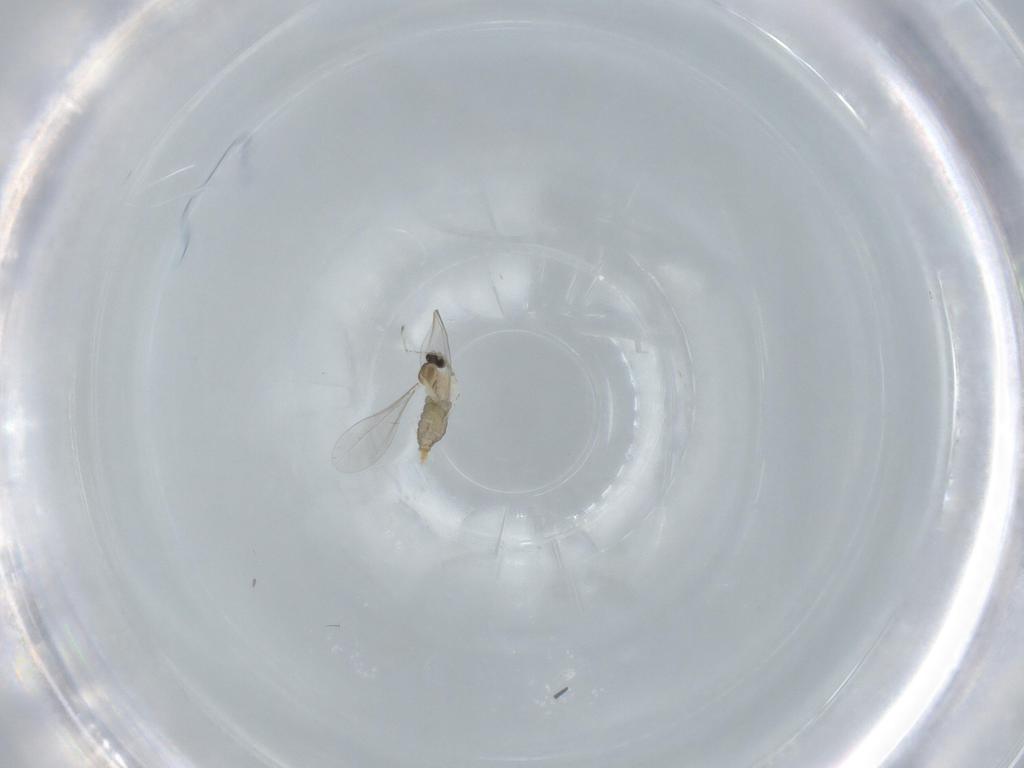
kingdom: Animalia
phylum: Arthropoda
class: Insecta
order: Diptera
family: Ceratopogonidae
